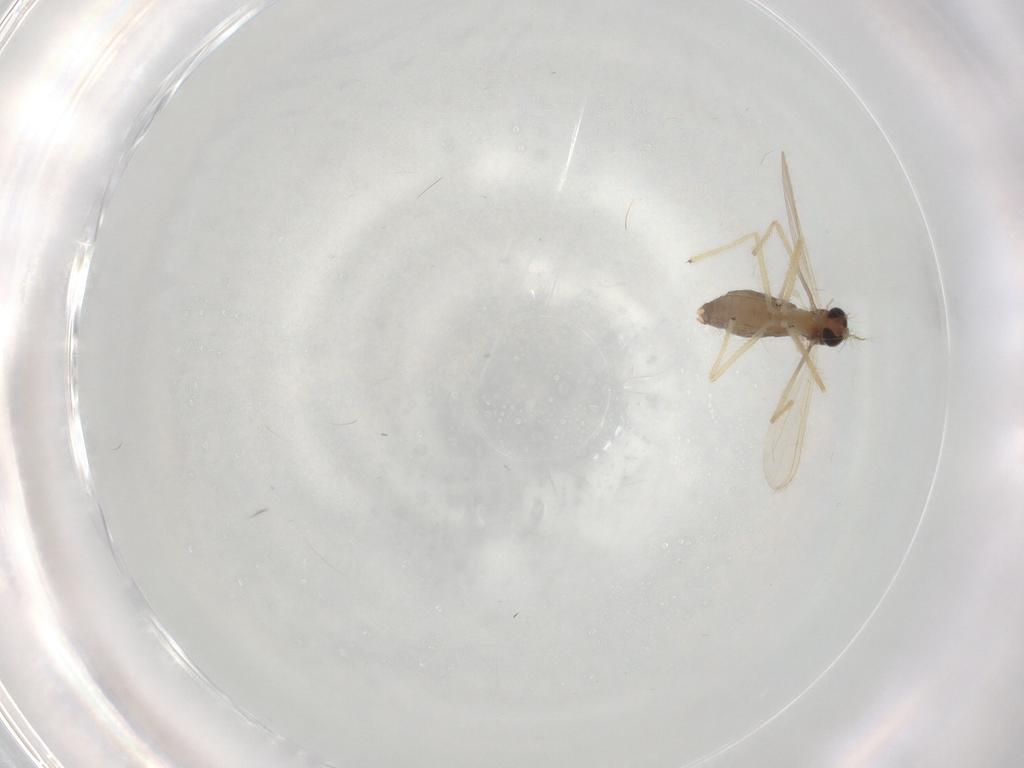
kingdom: Animalia
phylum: Arthropoda
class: Insecta
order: Diptera
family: Chironomidae
